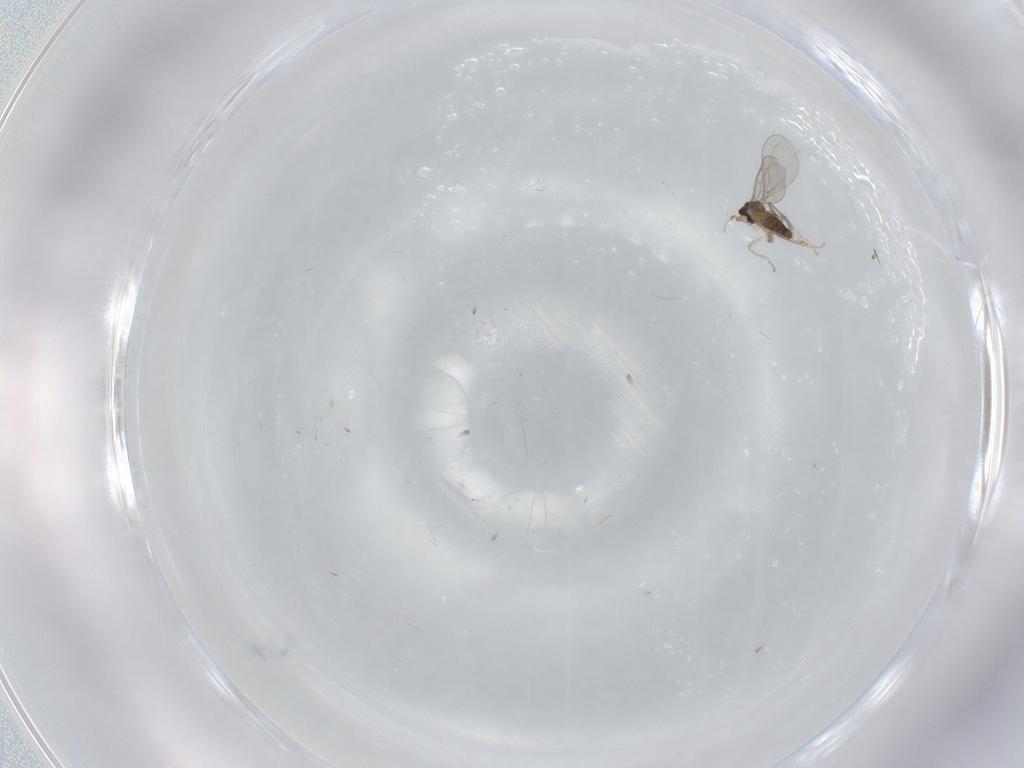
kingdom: Animalia
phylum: Arthropoda
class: Insecta
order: Diptera
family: Cecidomyiidae
